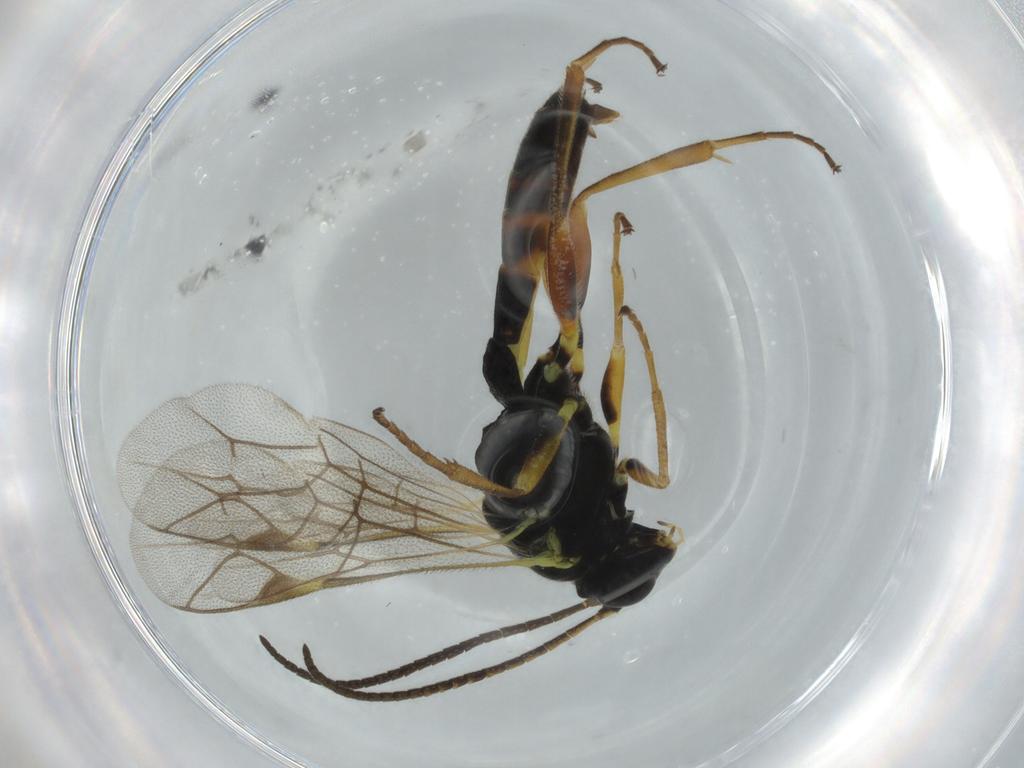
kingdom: Animalia
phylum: Arthropoda
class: Insecta
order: Hymenoptera
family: Ichneumonidae
